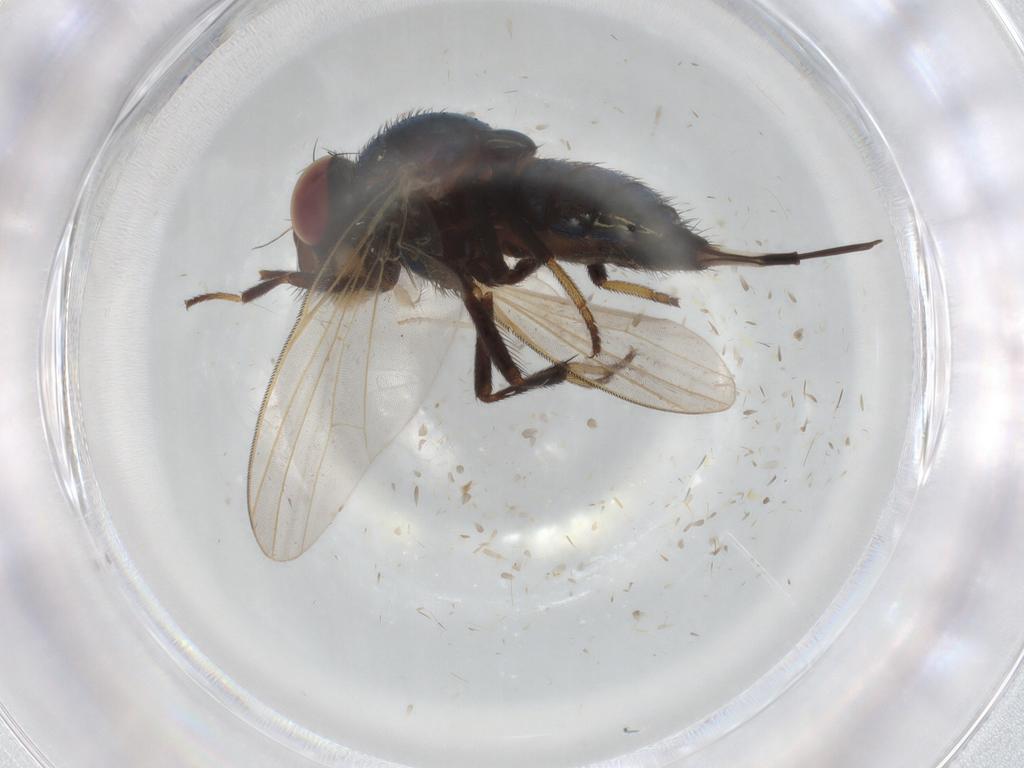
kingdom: Animalia
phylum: Arthropoda
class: Insecta
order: Diptera
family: Lauxaniidae
